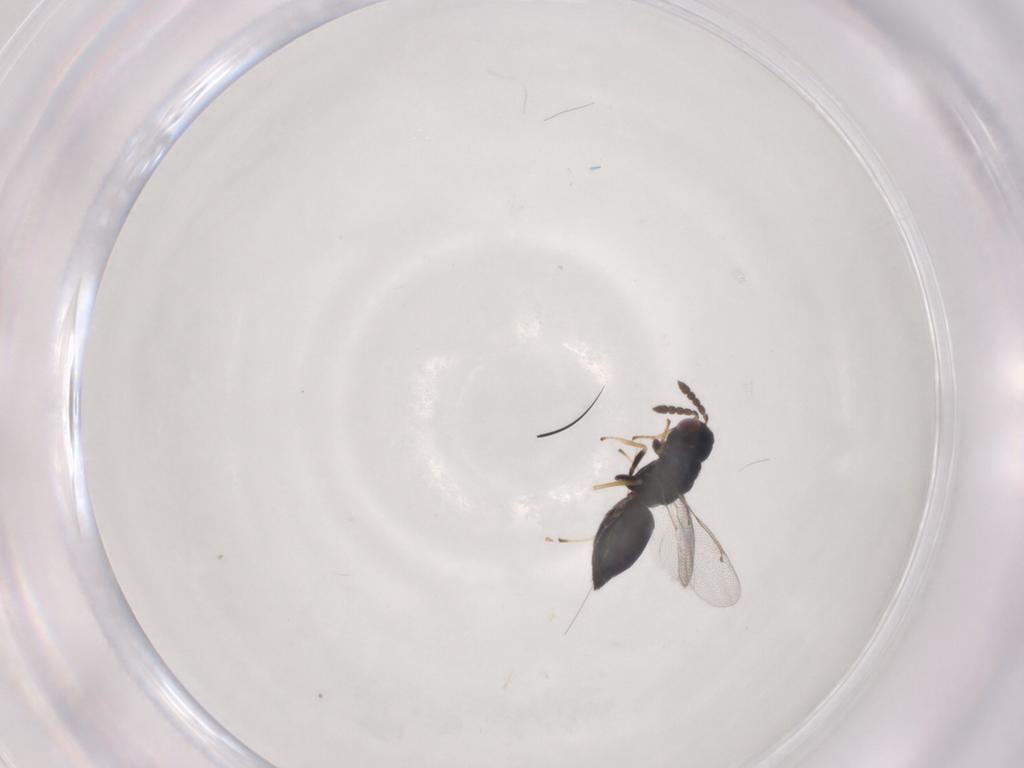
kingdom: Animalia
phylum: Arthropoda
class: Insecta
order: Hymenoptera
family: Eulophidae
